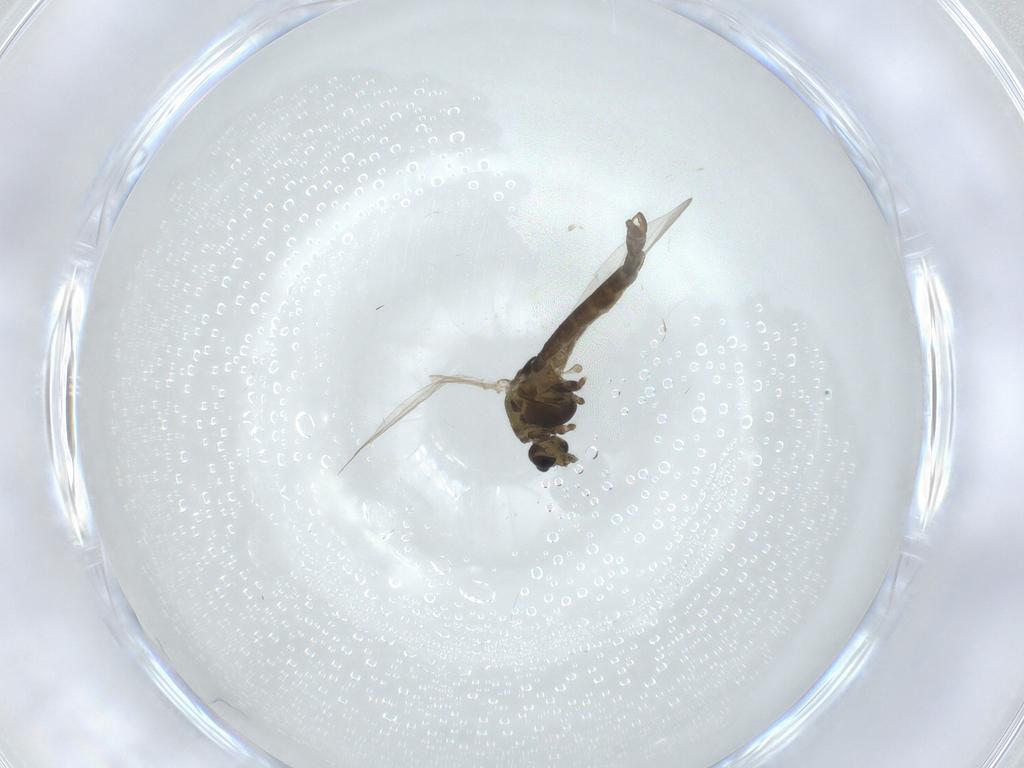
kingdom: Animalia
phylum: Arthropoda
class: Insecta
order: Diptera
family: Chironomidae
